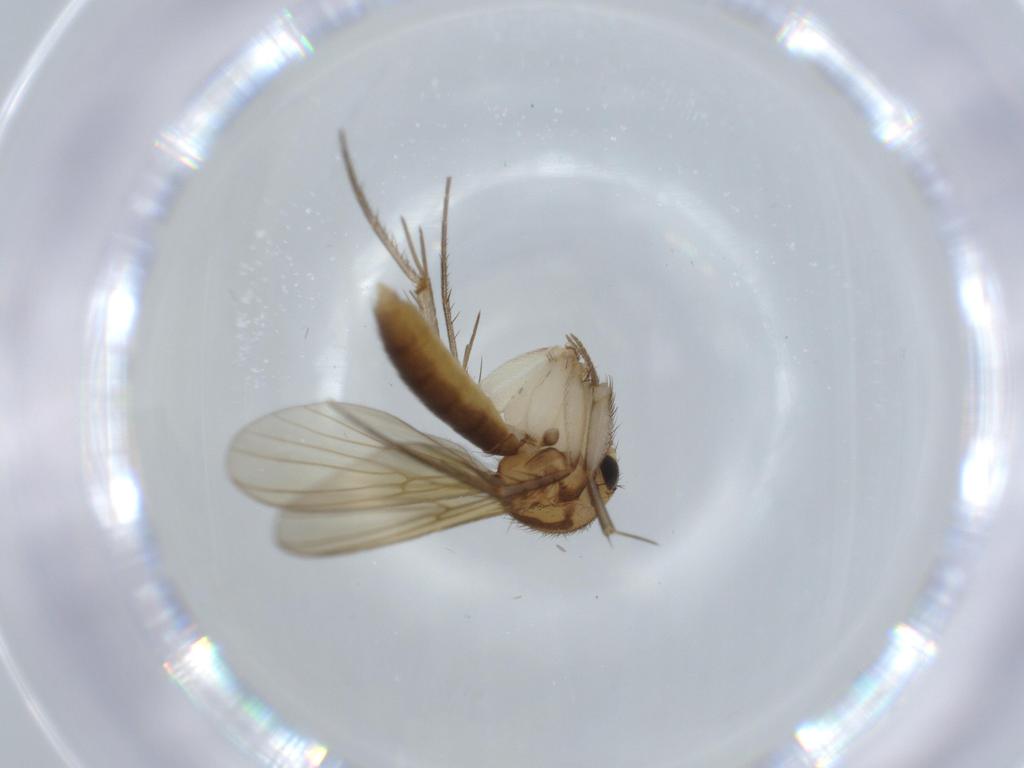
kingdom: Animalia
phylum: Arthropoda
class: Insecta
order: Diptera
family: Mycetophilidae
